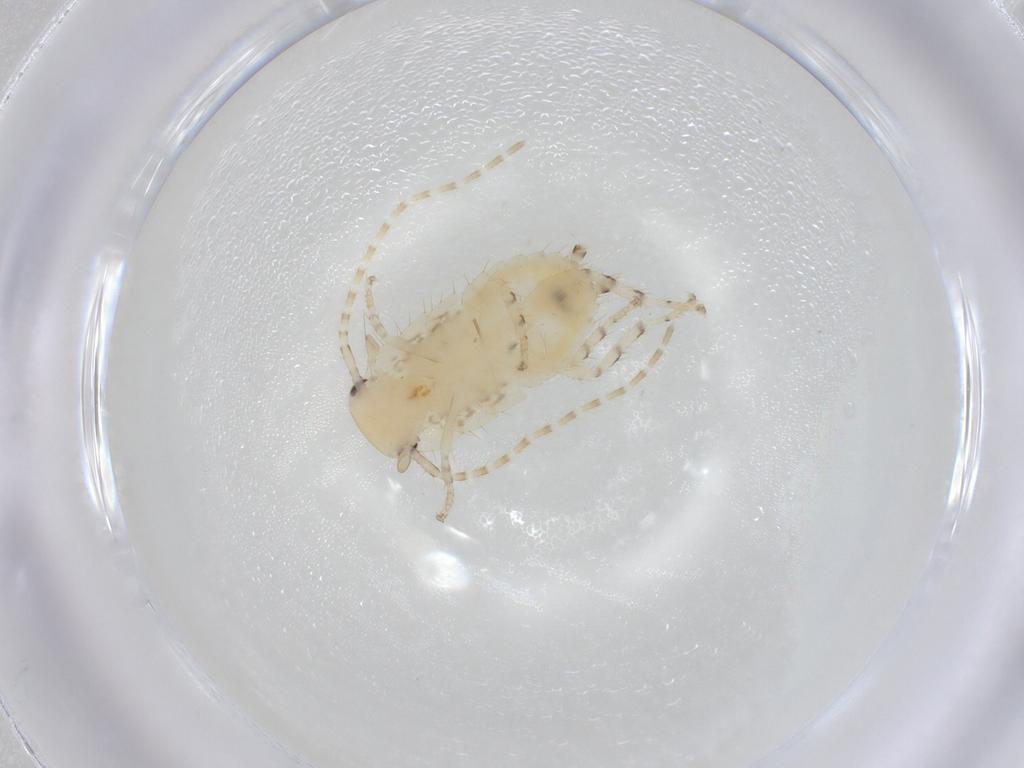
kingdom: Animalia
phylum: Arthropoda
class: Insecta
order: Blattodea
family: Ectobiidae
